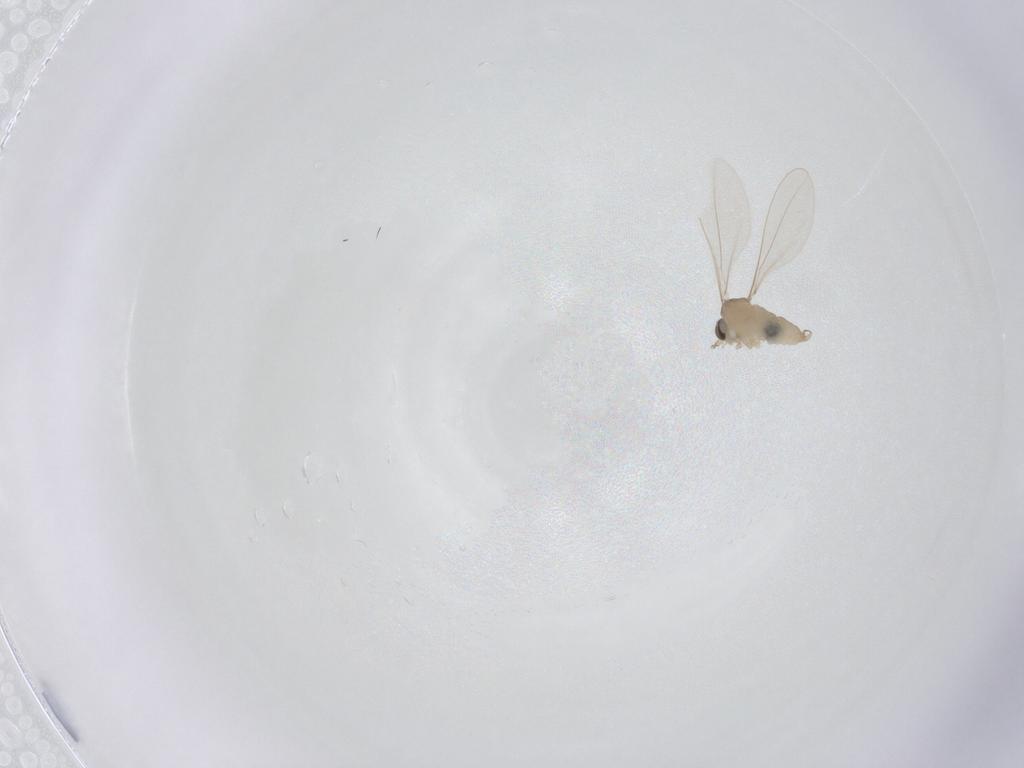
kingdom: Animalia
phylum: Arthropoda
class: Insecta
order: Diptera
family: Cecidomyiidae
